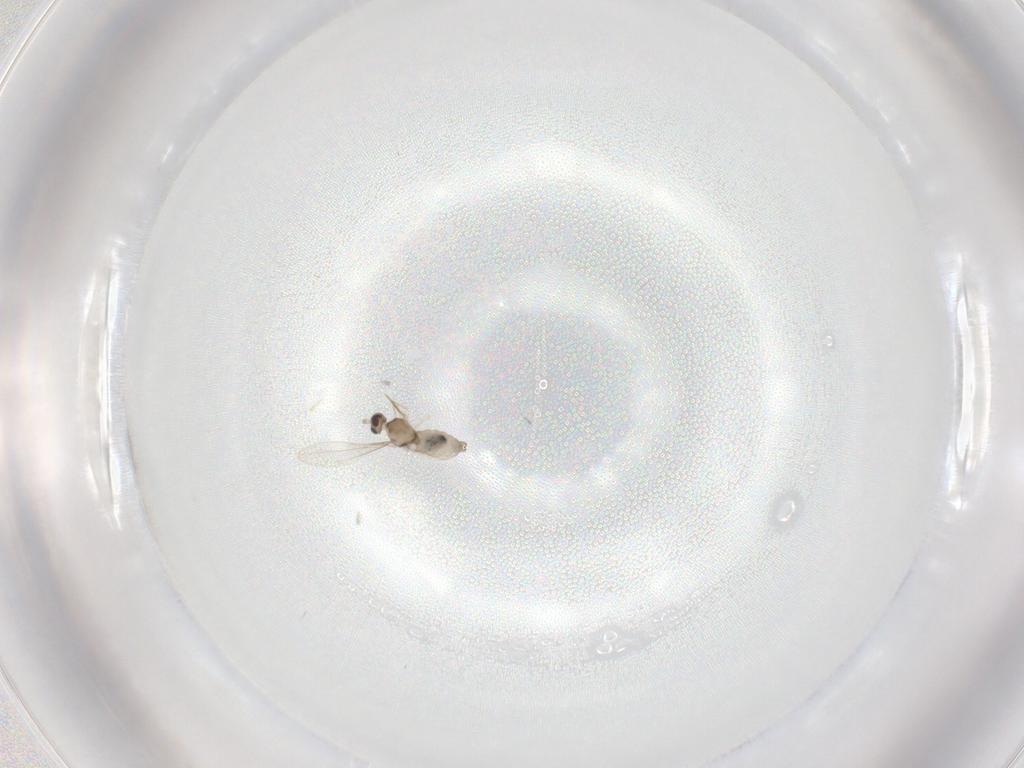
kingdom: Animalia
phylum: Arthropoda
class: Insecta
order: Diptera
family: Cecidomyiidae
